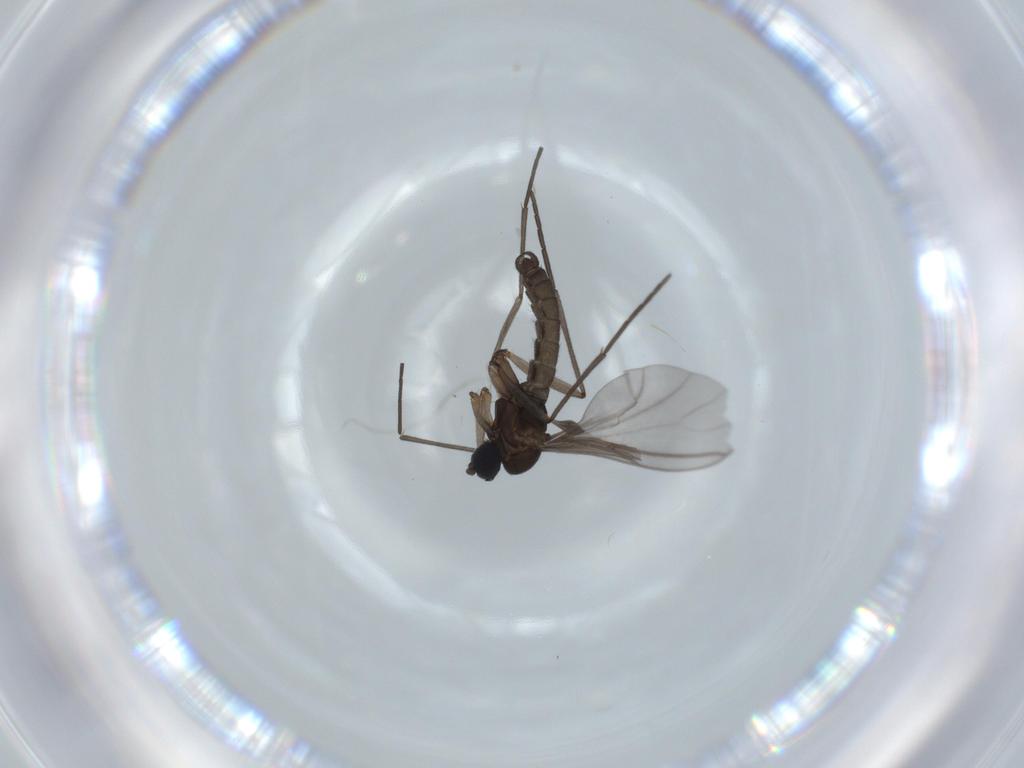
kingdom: Animalia
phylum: Arthropoda
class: Insecta
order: Diptera
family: Sciaridae
